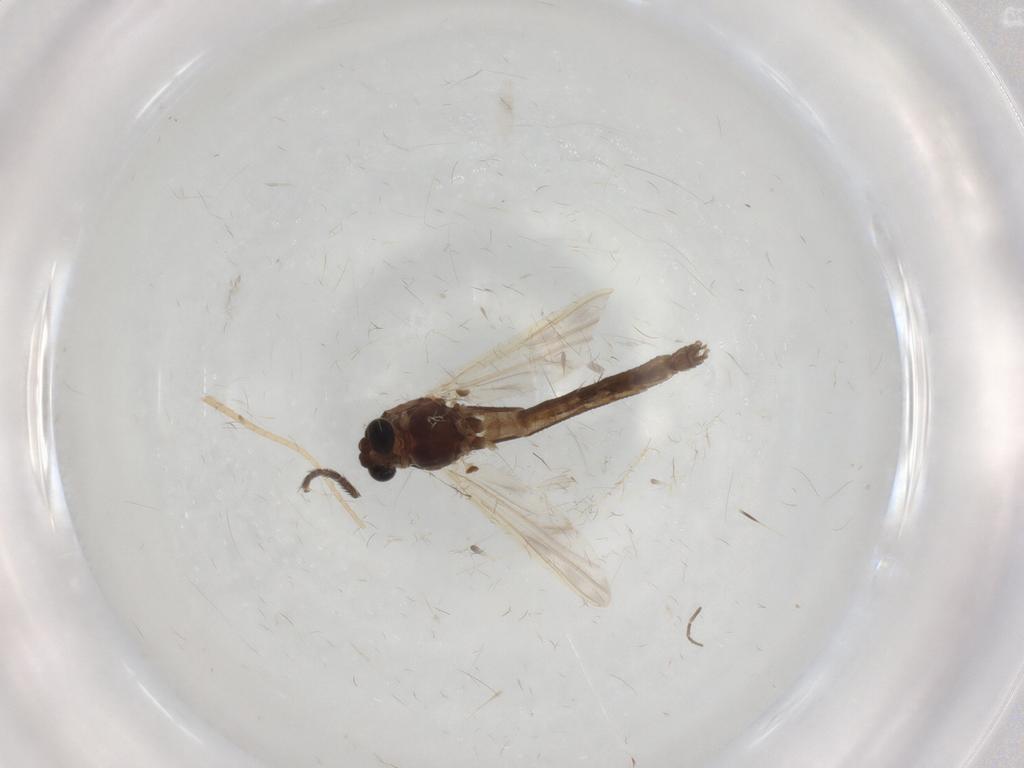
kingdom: Animalia
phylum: Arthropoda
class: Insecta
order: Diptera
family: Chironomidae
